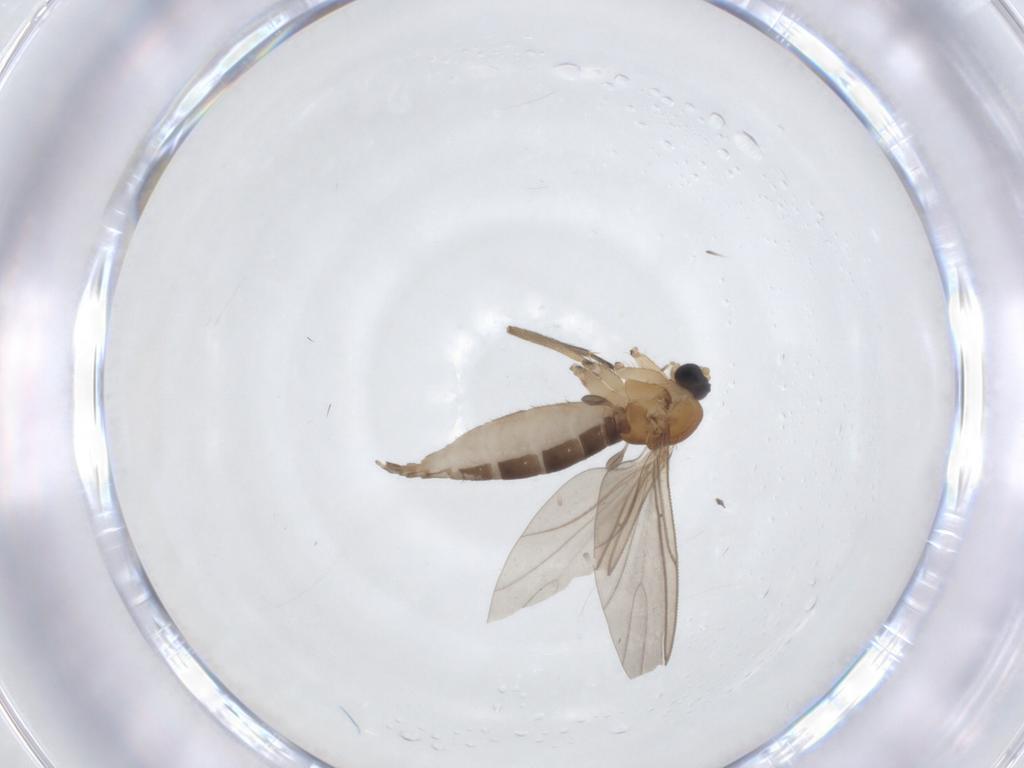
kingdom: Animalia
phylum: Arthropoda
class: Insecta
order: Diptera
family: Sciaridae
